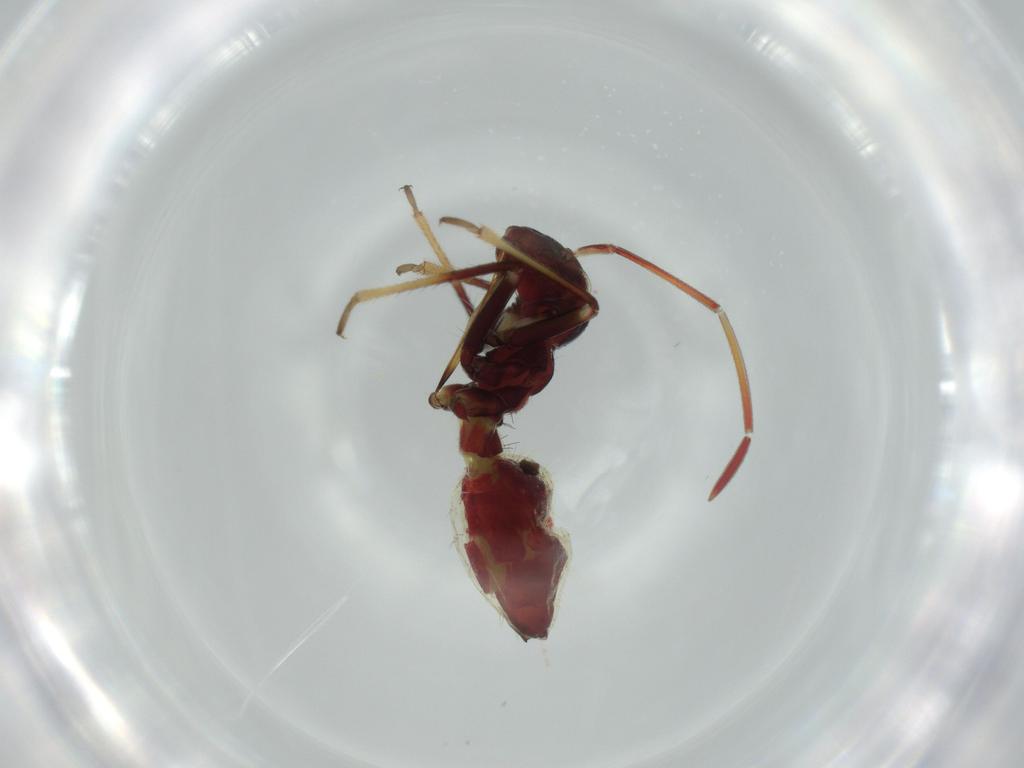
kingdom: Animalia
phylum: Arthropoda
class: Insecta
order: Hemiptera
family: Miridae
